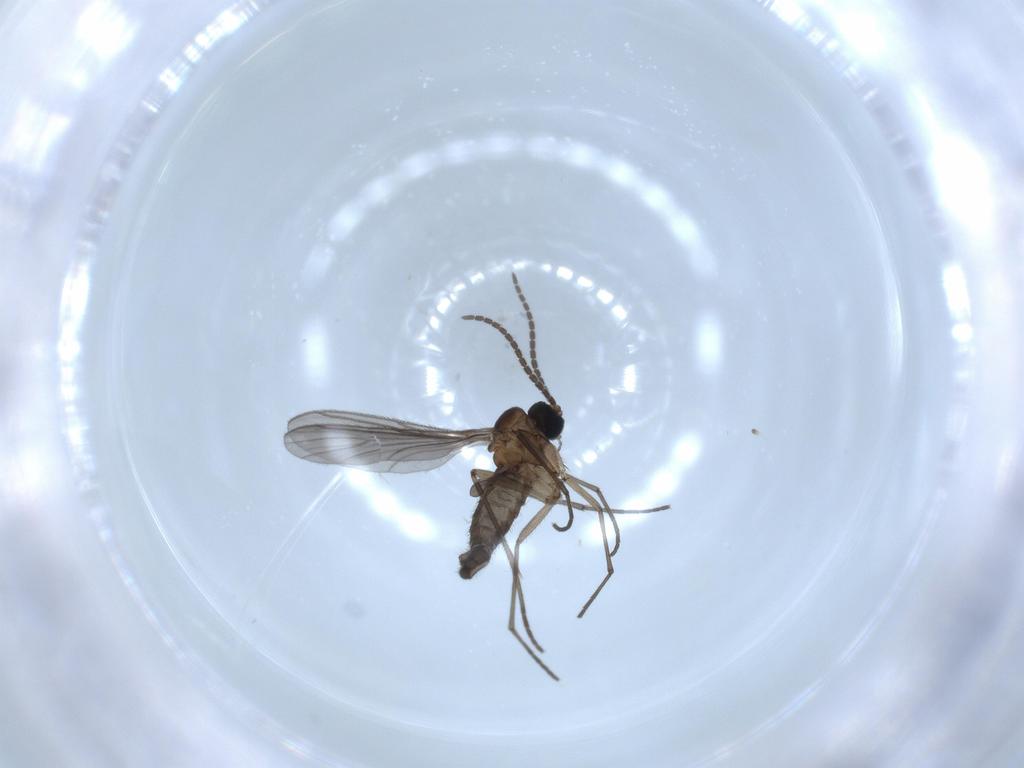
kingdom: Animalia
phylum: Arthropoda
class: Insecta
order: Diptera
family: Sciaridae
